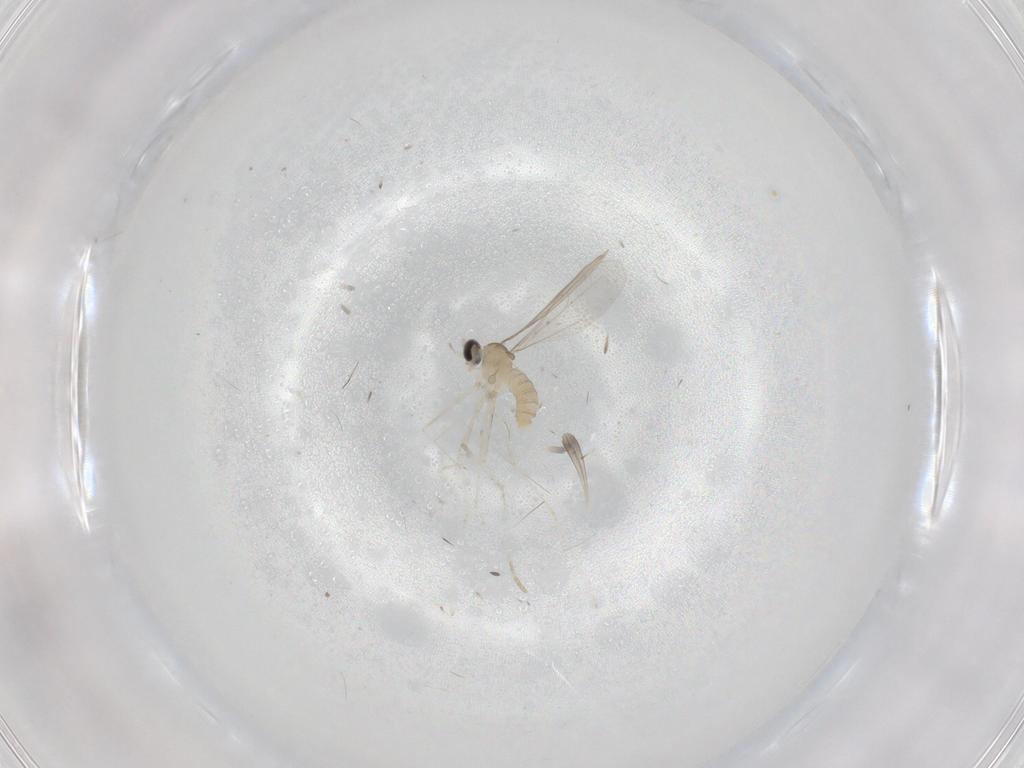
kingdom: Animalia
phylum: Arthropoda
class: Insecta
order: Diptera
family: Cecidomyiidae
